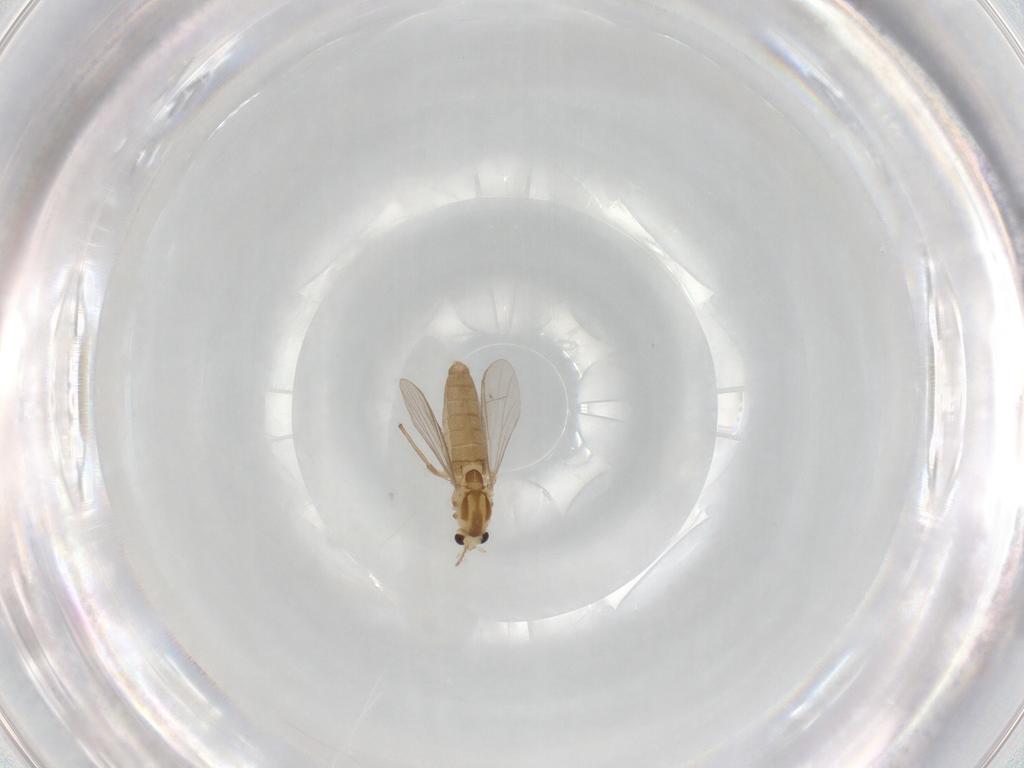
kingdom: Animalia
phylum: Arthropoda
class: Insecta
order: Diptera
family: Chironomidae
